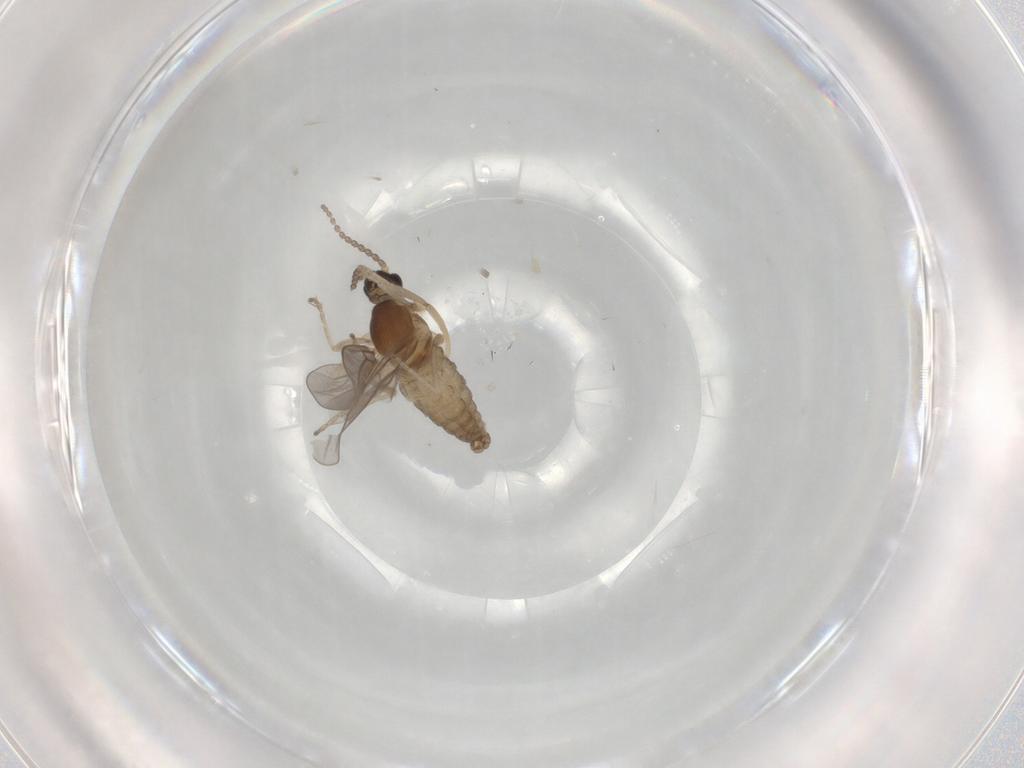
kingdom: Animalia
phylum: Arthropoda
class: Insecta
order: Diptera
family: Cecidomyiidae
